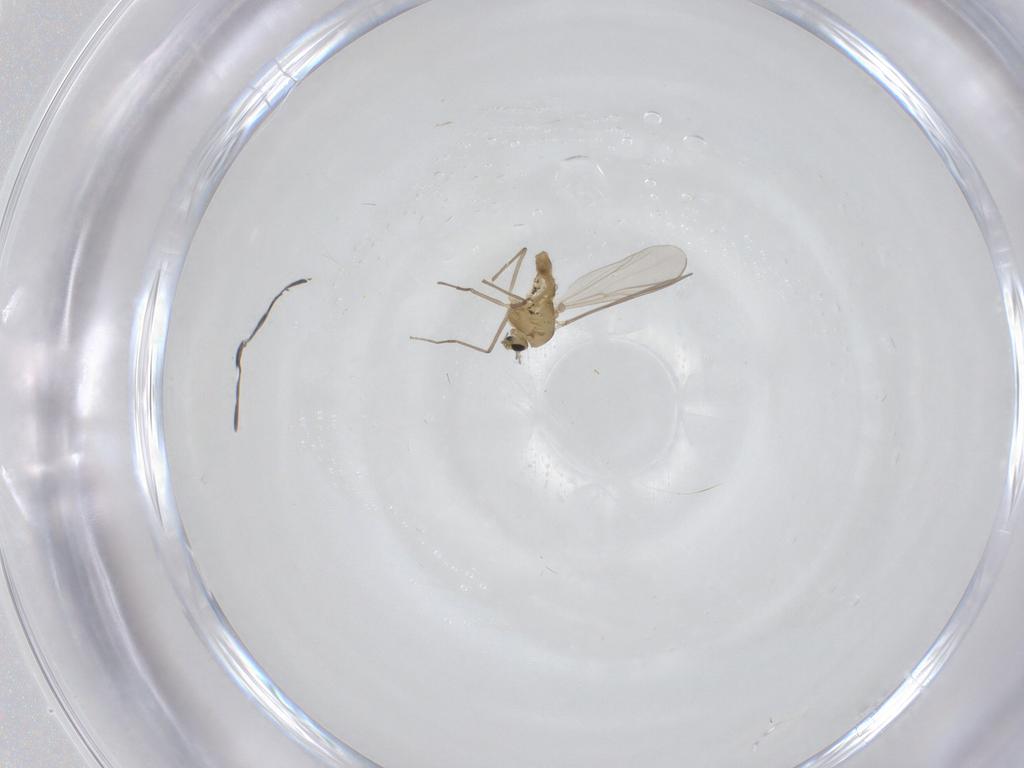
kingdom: Animalia
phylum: Arthropoda
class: Insecta
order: Diptera
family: Chironomidae
